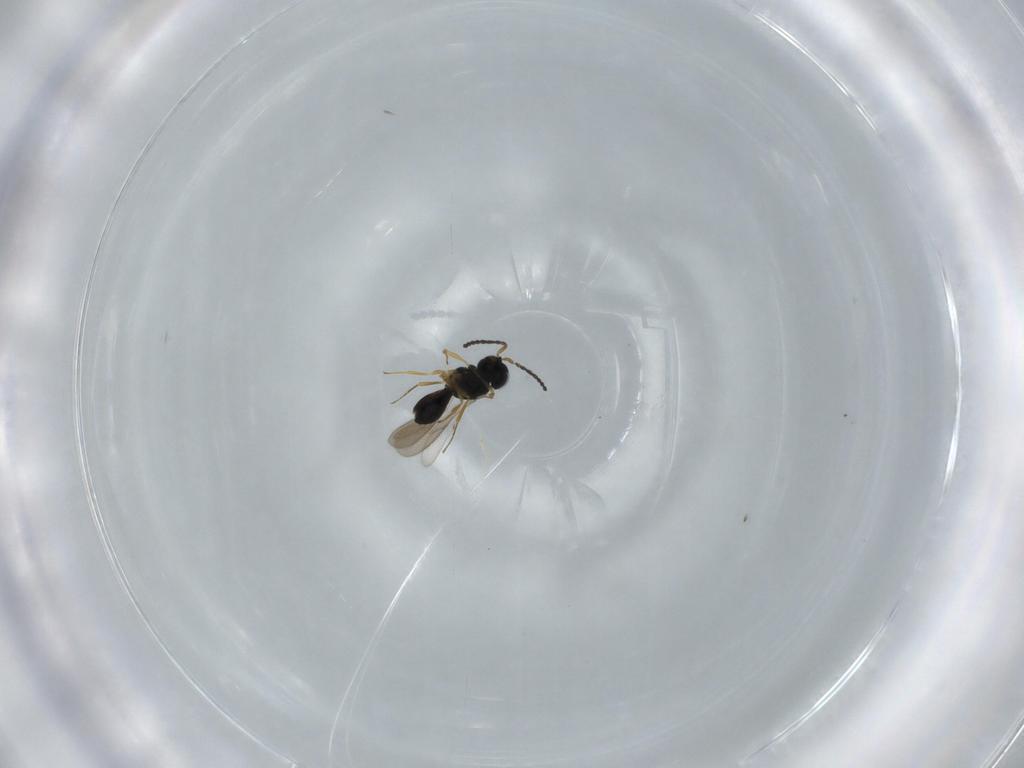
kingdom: Animalia
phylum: Arthropoda
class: Insecta
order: Hymenoptera
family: Scelionidae
